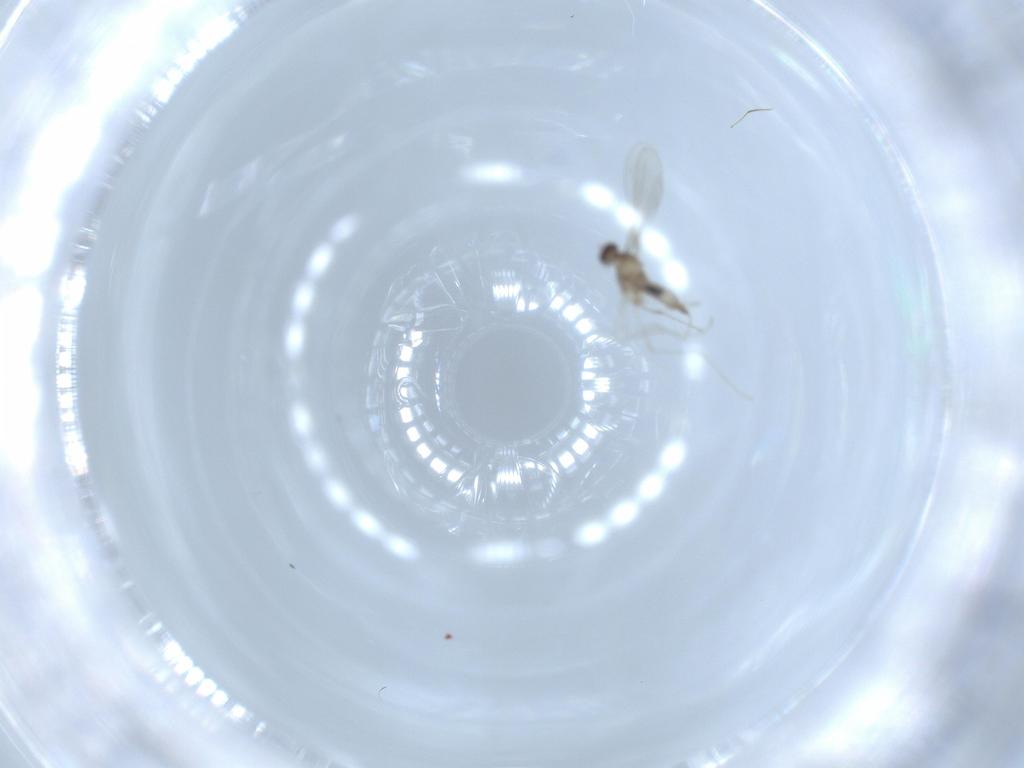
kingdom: Animalia
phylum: Arthropoda
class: Insecta
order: Diptera
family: Cecidomyiidae
